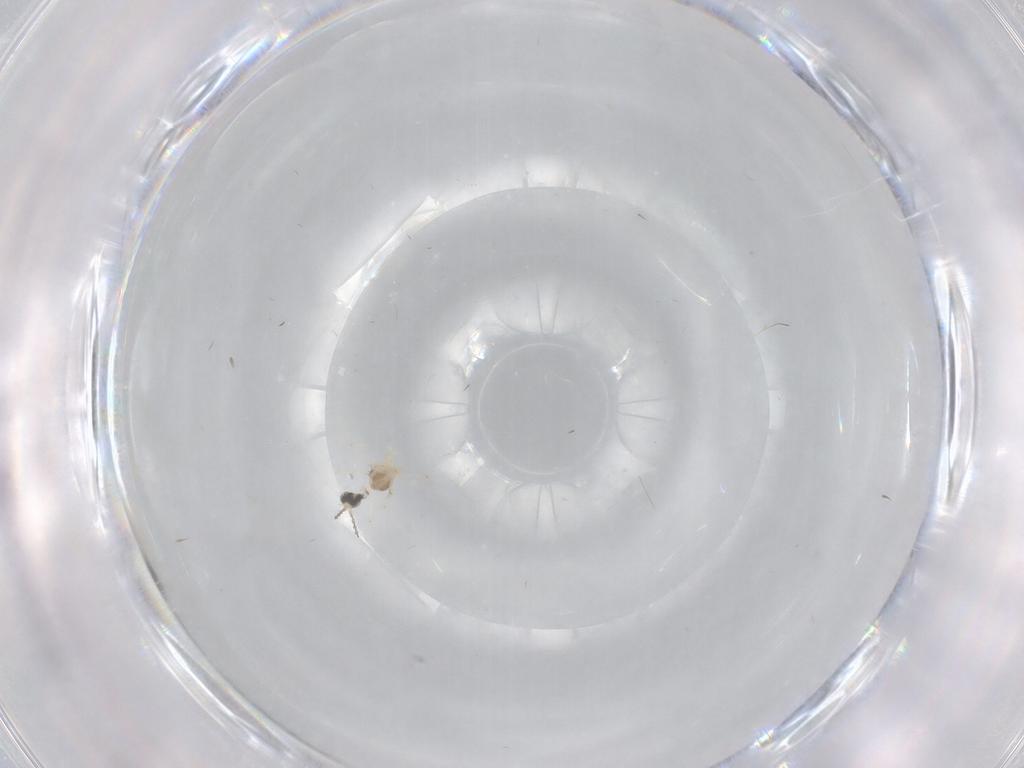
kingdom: Animalia
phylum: Arthropoda
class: Insecta
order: Diptera
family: Cecidomyiidae
